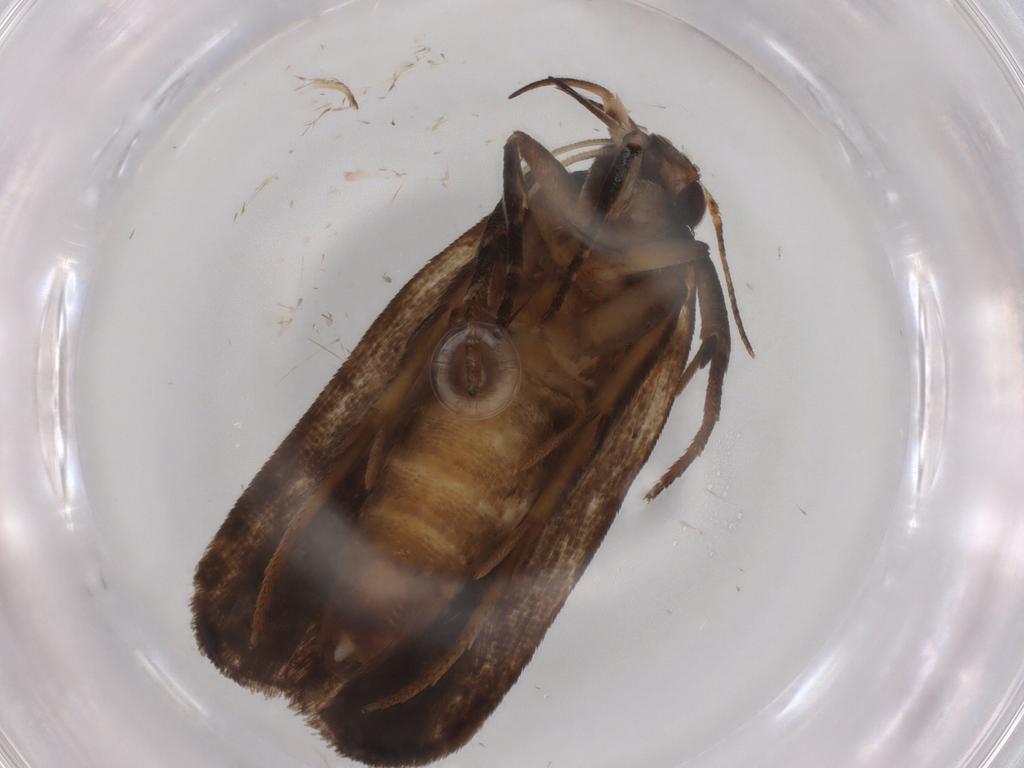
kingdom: Animalia
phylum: Arthropoda
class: Insecta
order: Lepidoptera
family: Gelechiidae
